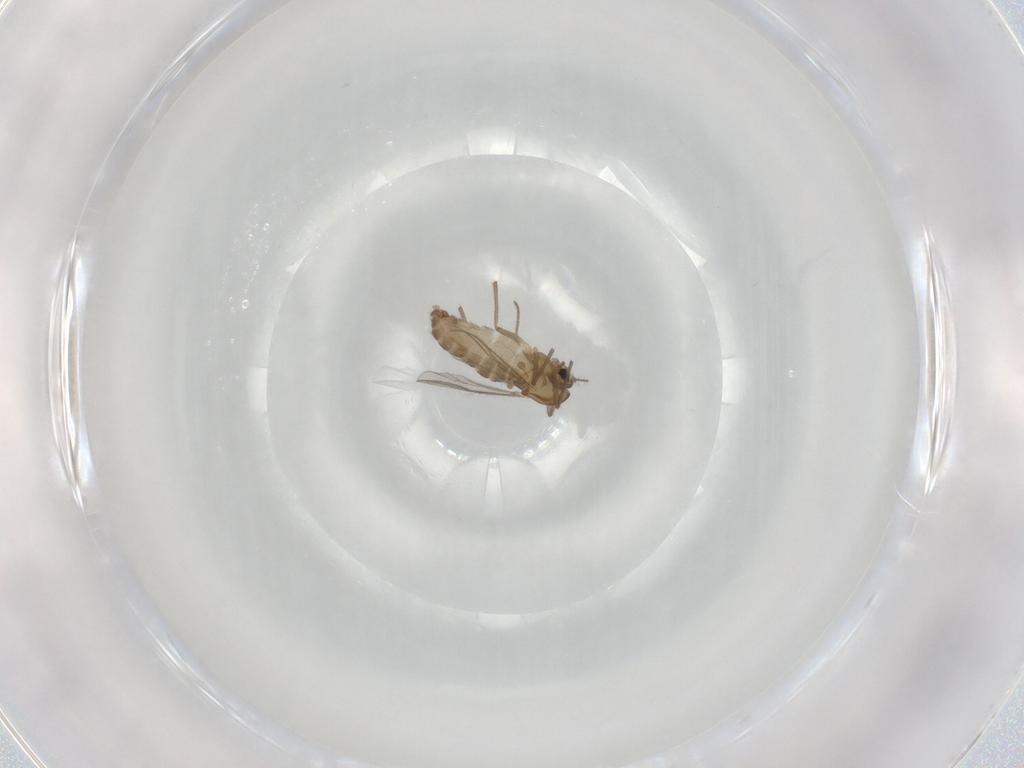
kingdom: Animalia
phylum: Arthropoda
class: Insecta
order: Diptera
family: Chironomidae
